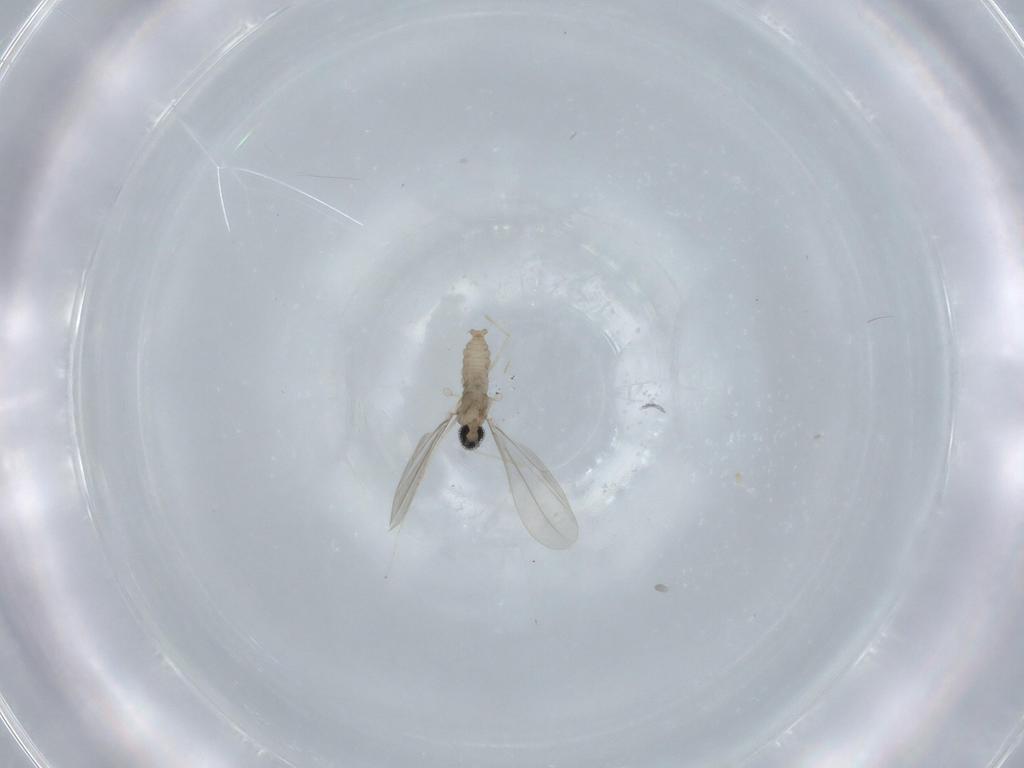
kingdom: Animalia
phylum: Arthropoda
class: Insecta
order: Diptera
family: Cecidomyiidae
